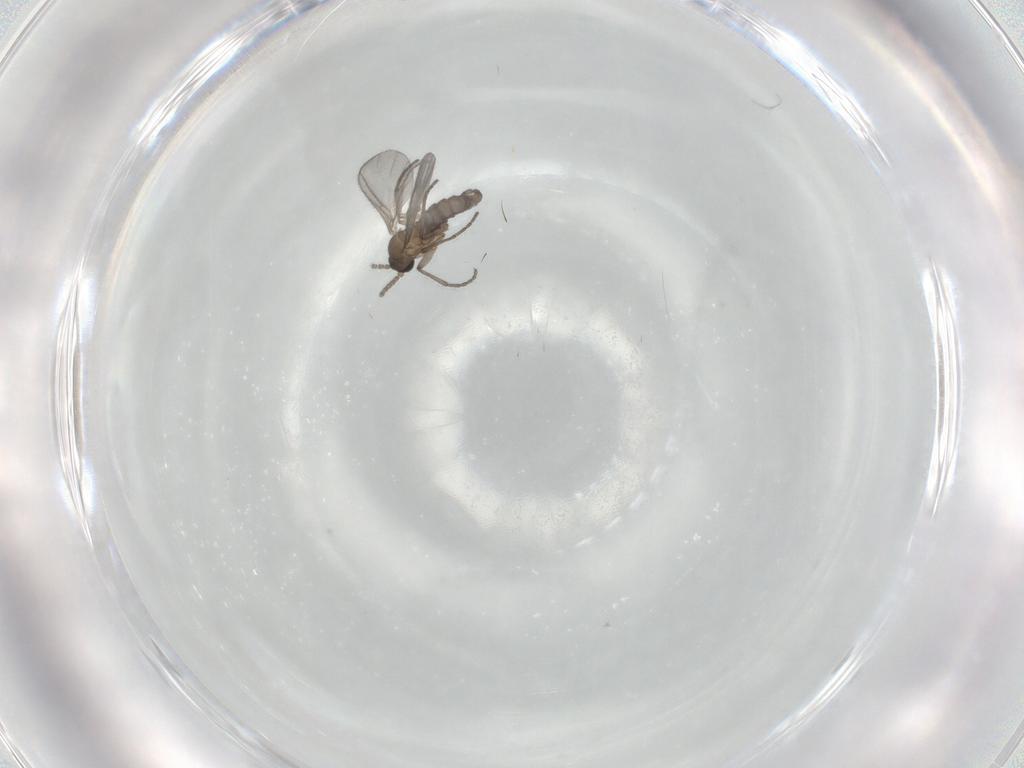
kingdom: Animalia
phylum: Arthropoda
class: Insecta
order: Diptera
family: Sciaridae
